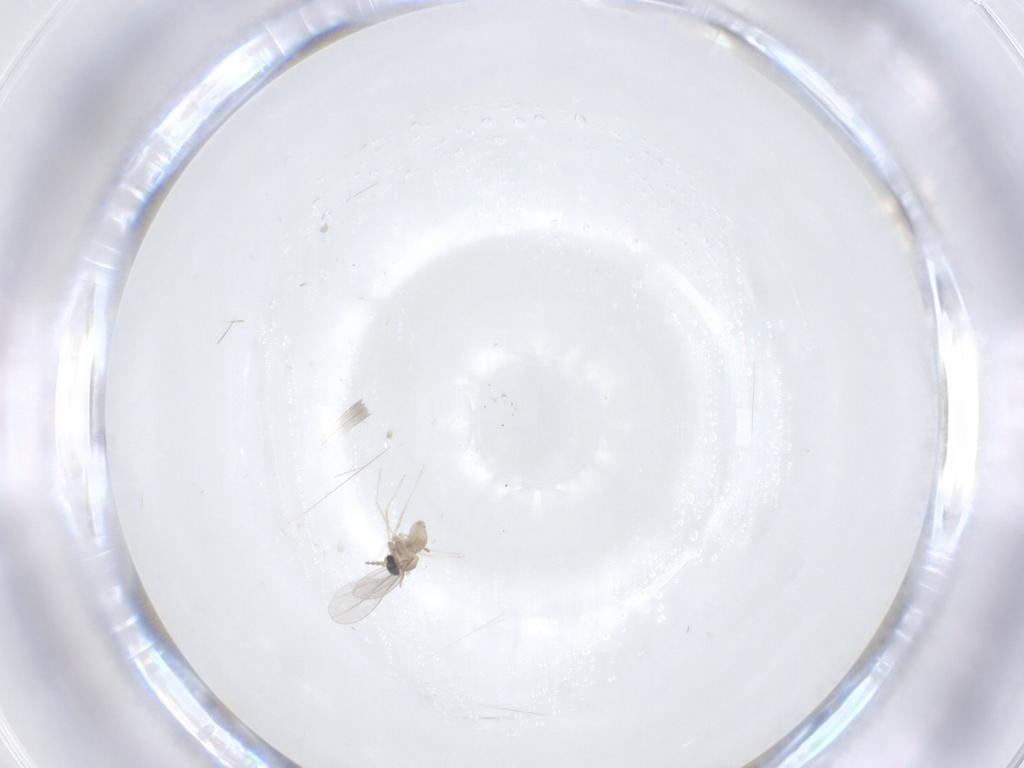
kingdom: Animalia
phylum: Arthropoda
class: Insecta
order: Diptera
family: Cecidomyiidae
